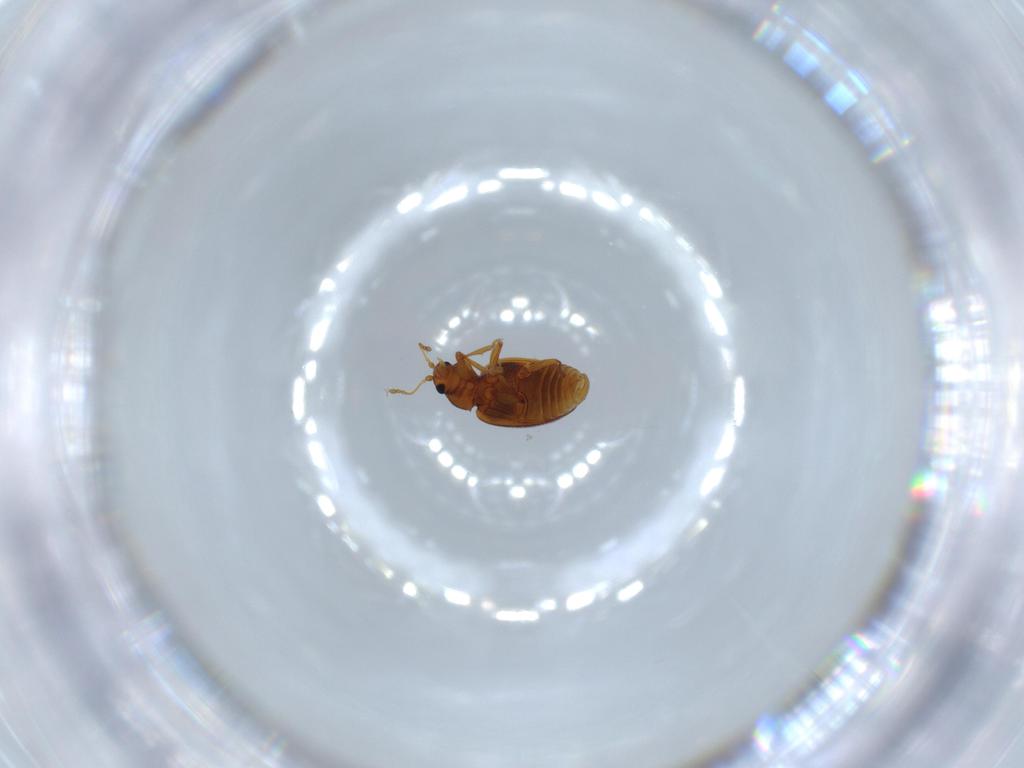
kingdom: Animalia
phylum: Arthropoda
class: Insecta
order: Coleoptera
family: Latridiidae
